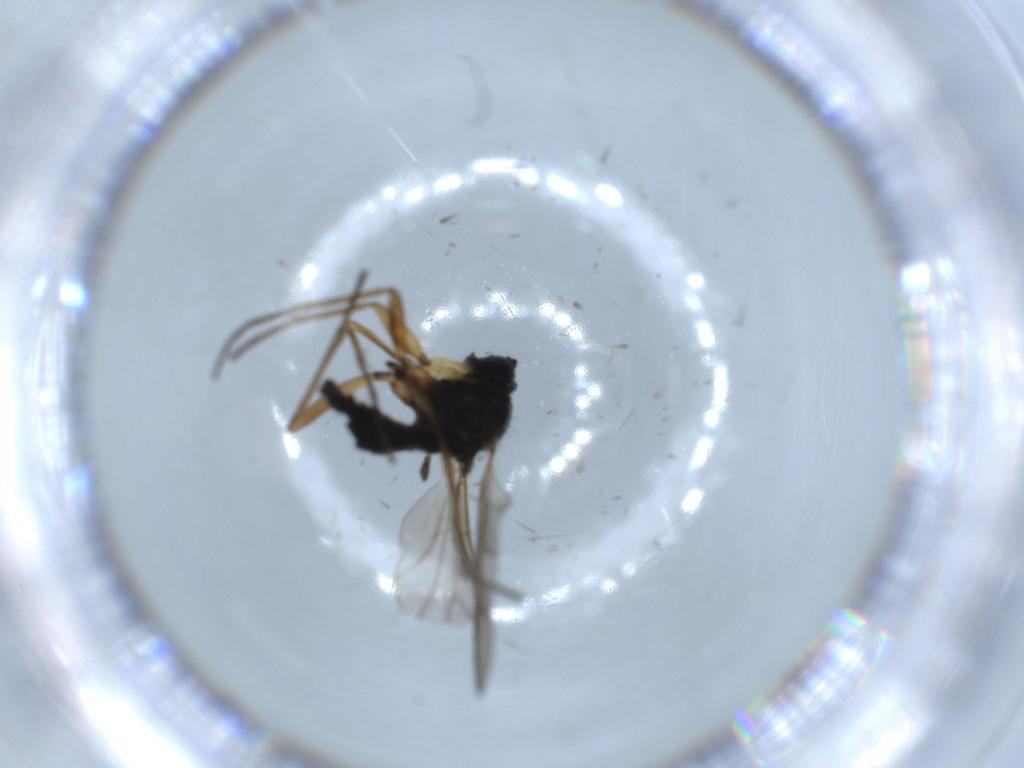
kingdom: Animalia
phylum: Arthropoda
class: Insecta
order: Diptera
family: Sciaridae
